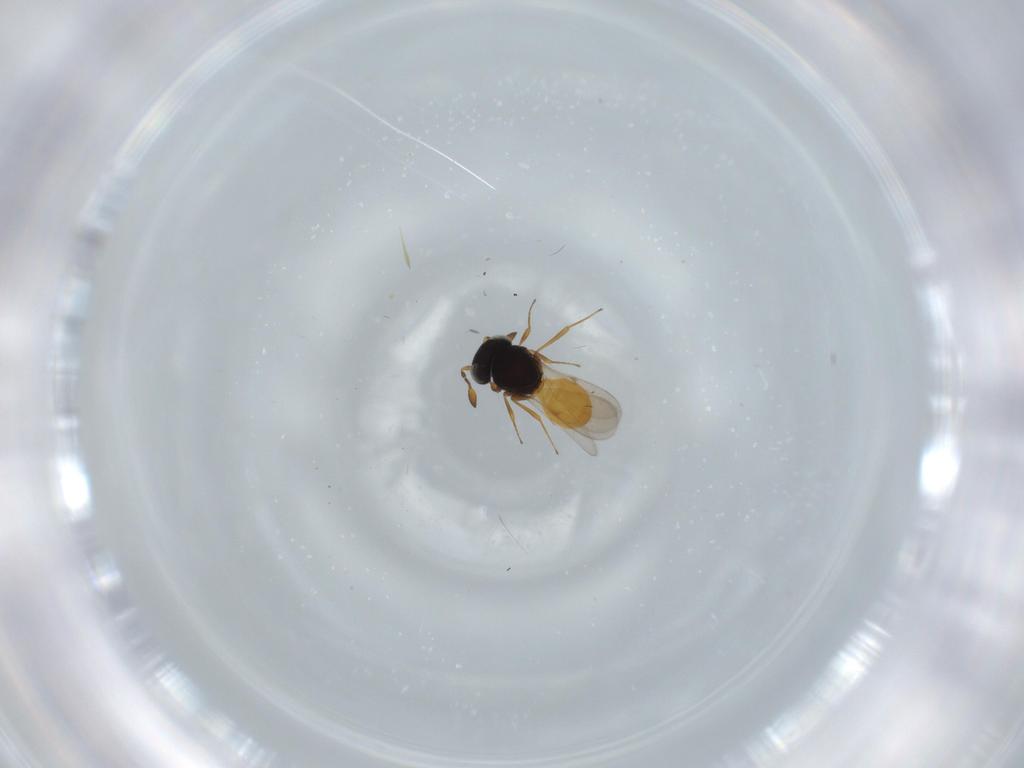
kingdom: Animalia
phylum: Arthropoda
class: Insecta
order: Hymenoptera
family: Scelionidae
